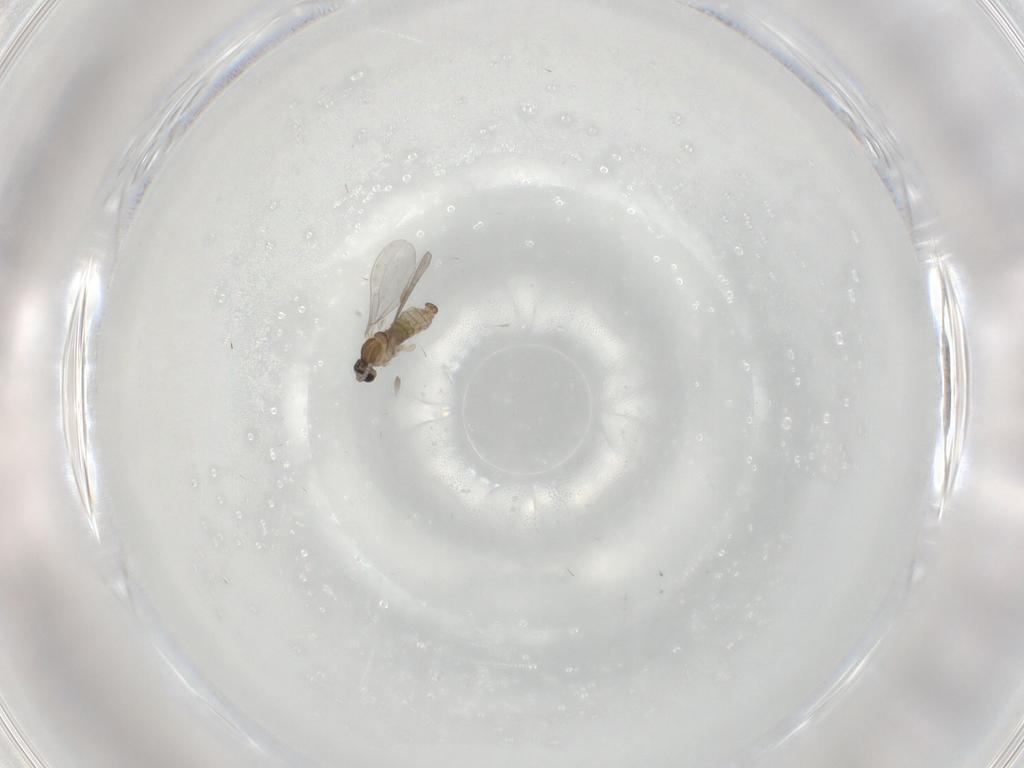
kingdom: Animalia
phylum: Arthropoda
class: Insecta
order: Diptera
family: Cecidomyiidae
